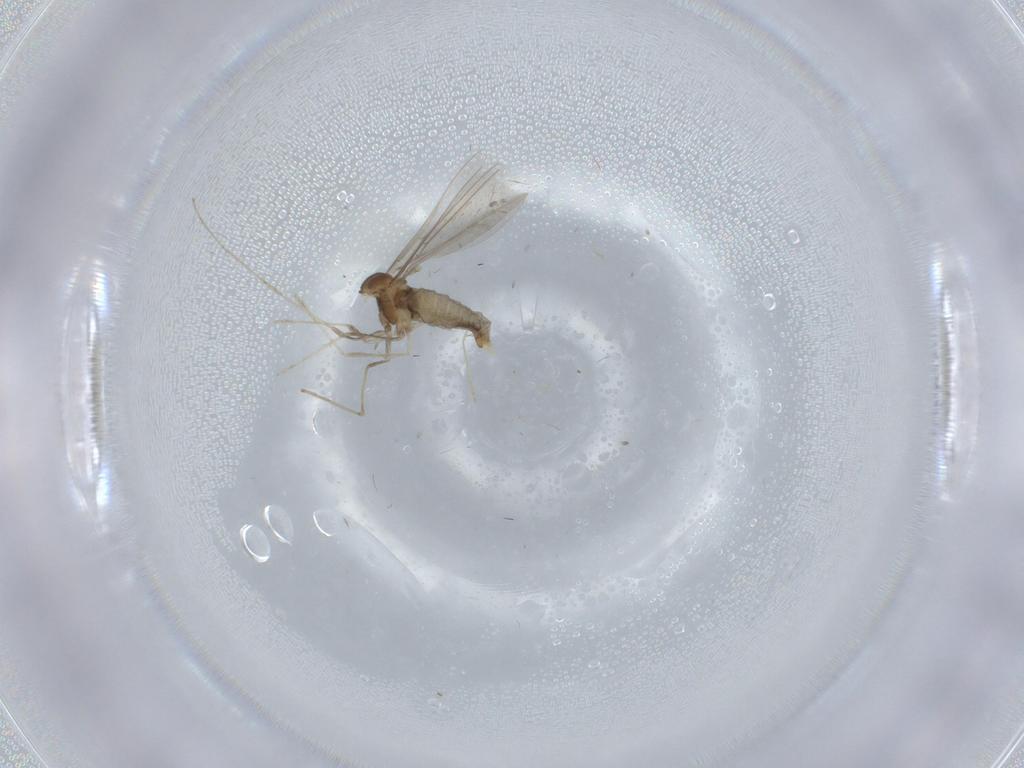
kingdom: Animalia
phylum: Arthropoda
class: Insecta
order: Diptera
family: Cecidomyiidae
